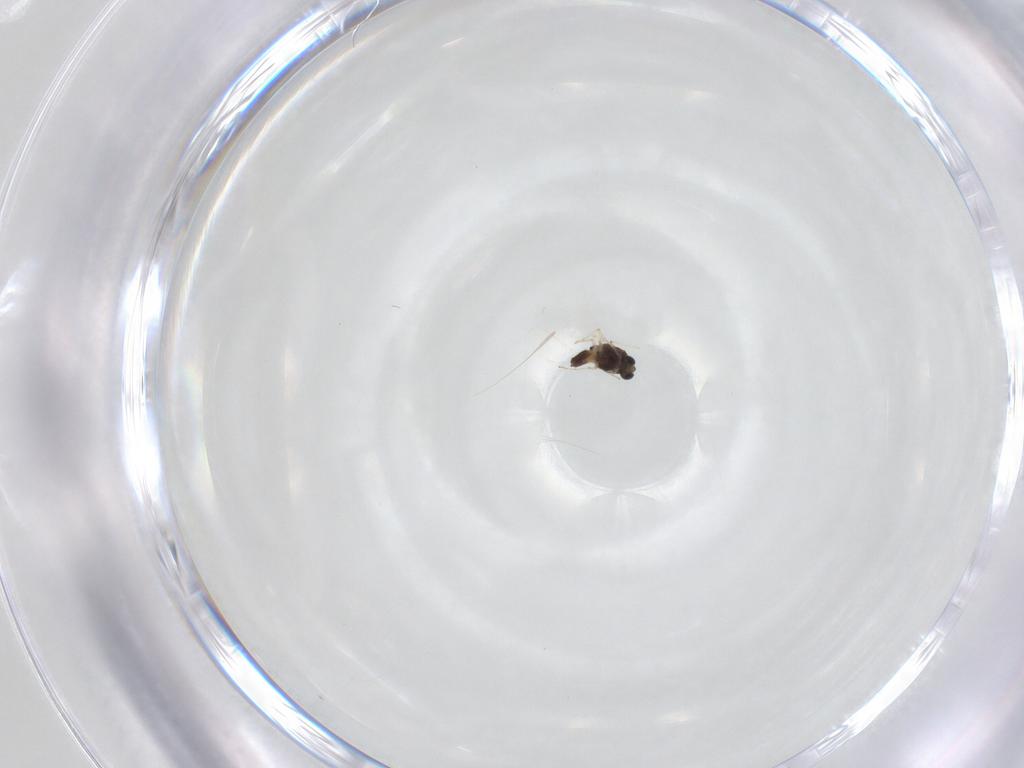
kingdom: Animalia
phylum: Arthropoda
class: Insecta
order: Diptera
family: Chironomidae
